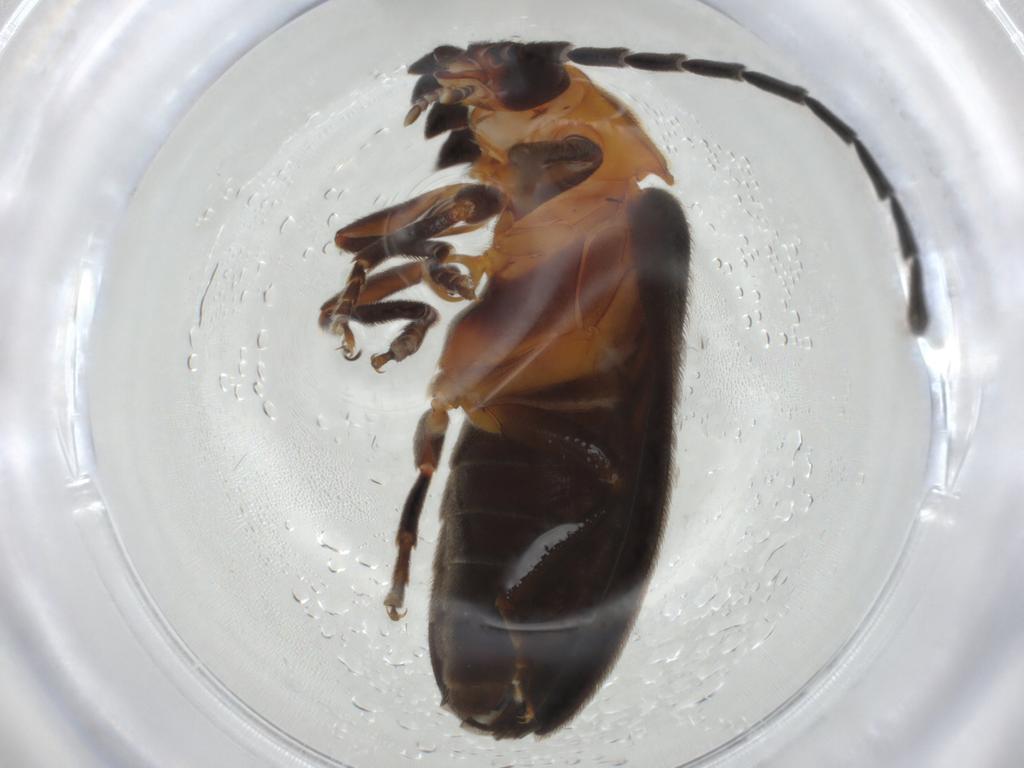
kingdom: Animalia
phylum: Arthropoda
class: Insecta
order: Coleoptera
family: Lampyridae
